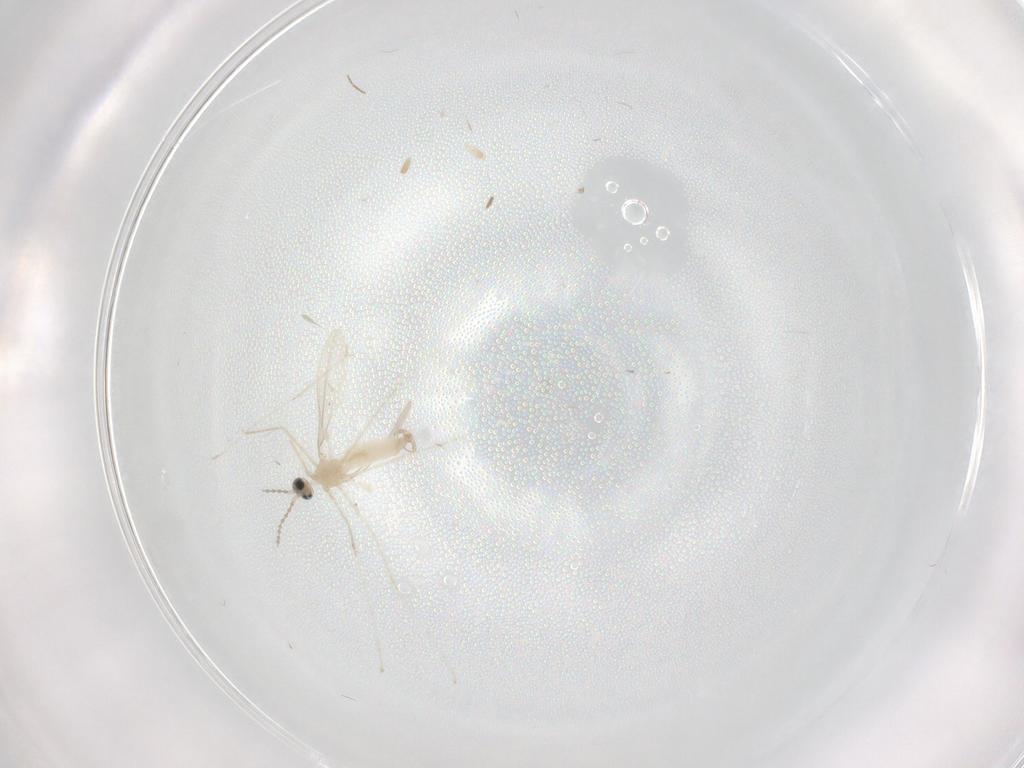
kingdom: Animalia
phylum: Arthropoda
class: Insecta
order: Diptera
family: Chironomidae
